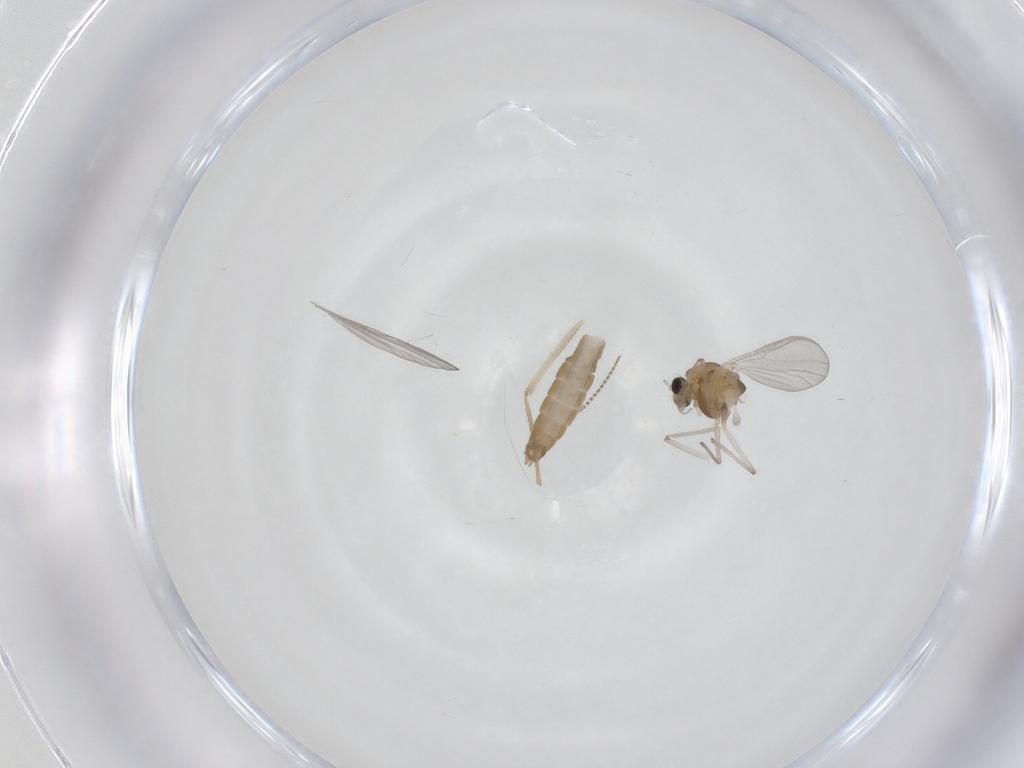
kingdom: Animalia
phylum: Arthropoda
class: Insecta
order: Diptera
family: Chironomidae
